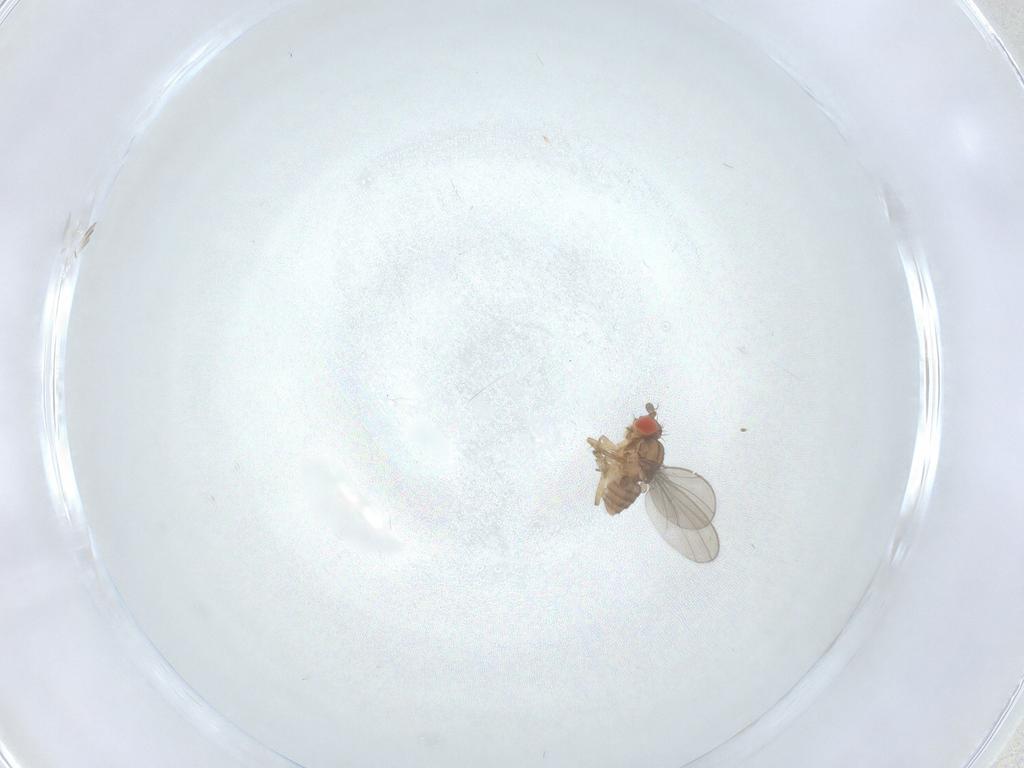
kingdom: Animalia
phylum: Arthropoda
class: Insecta
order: Diptera
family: Drosophilidae
